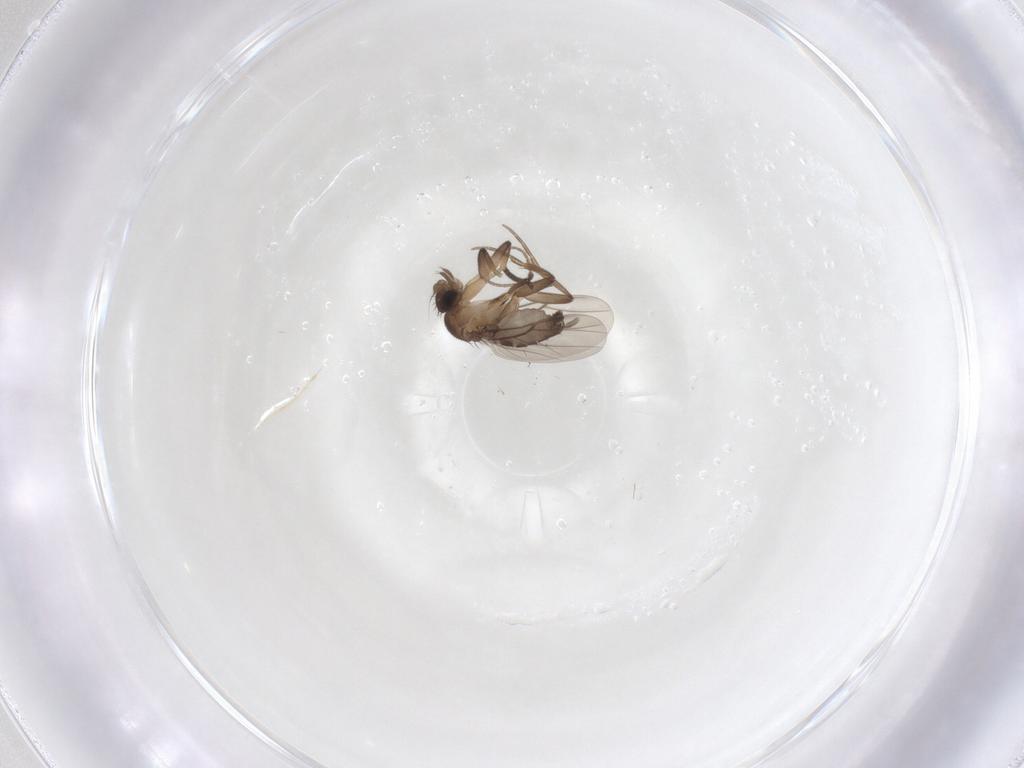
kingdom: Animalia
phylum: Arthropoda
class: Insecta
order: Diptera
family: Phoridae
